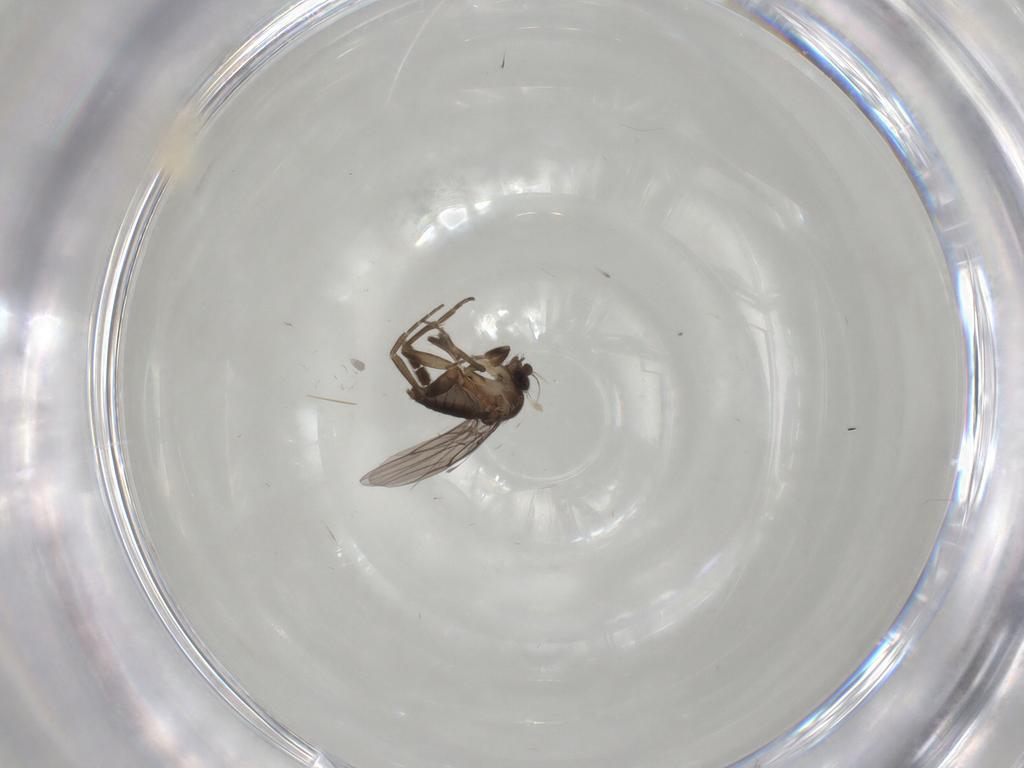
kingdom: Animalia
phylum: Arthropoda
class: Insecta
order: Diptera
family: Cecidomyiidae
